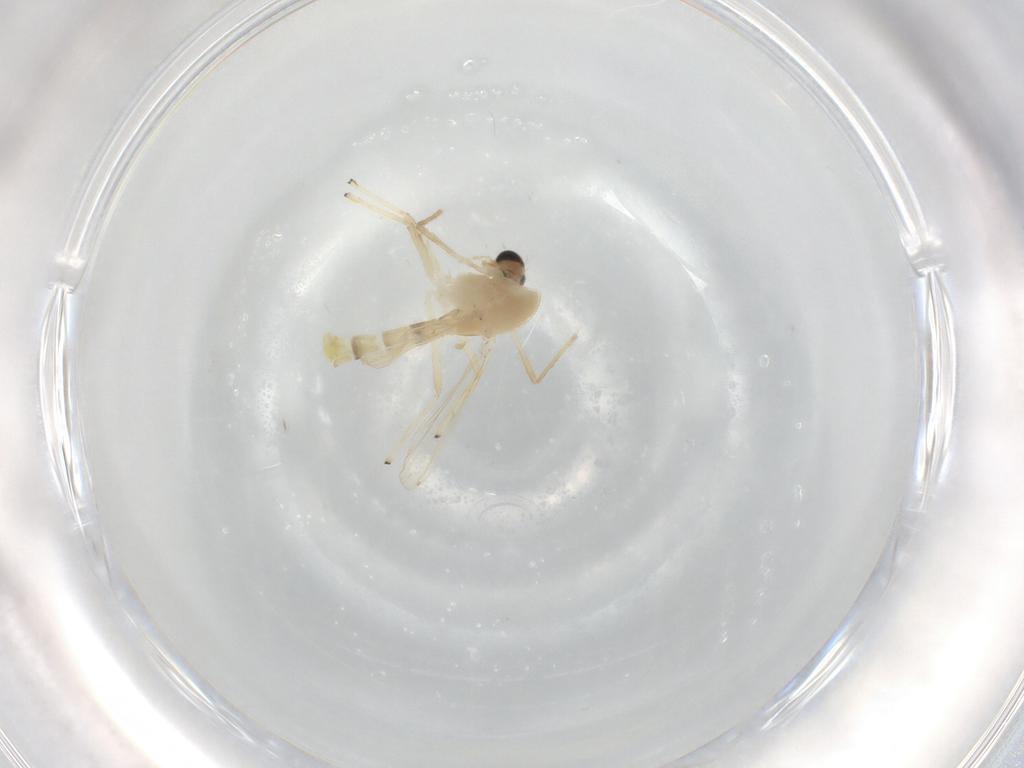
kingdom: Animalia
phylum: Arthropoda
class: Insecta
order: Diptera
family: Chironomidae
